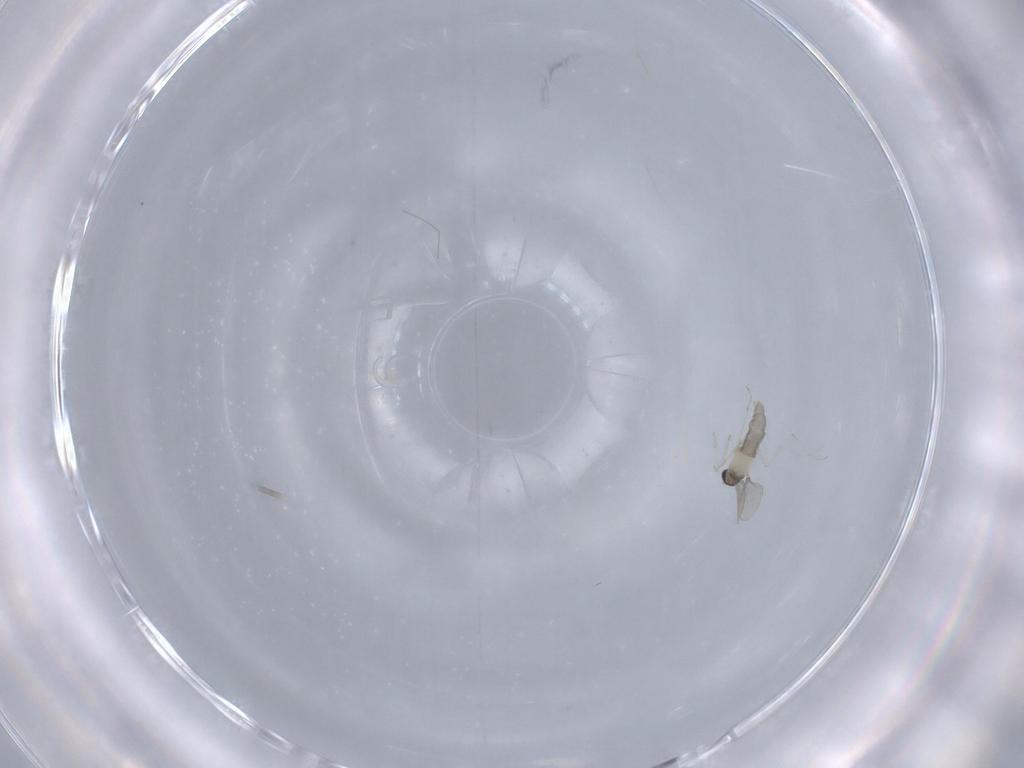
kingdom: Animalia
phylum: Arthropoda
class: Insecta
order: Diptera
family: Cecidomyiidae
